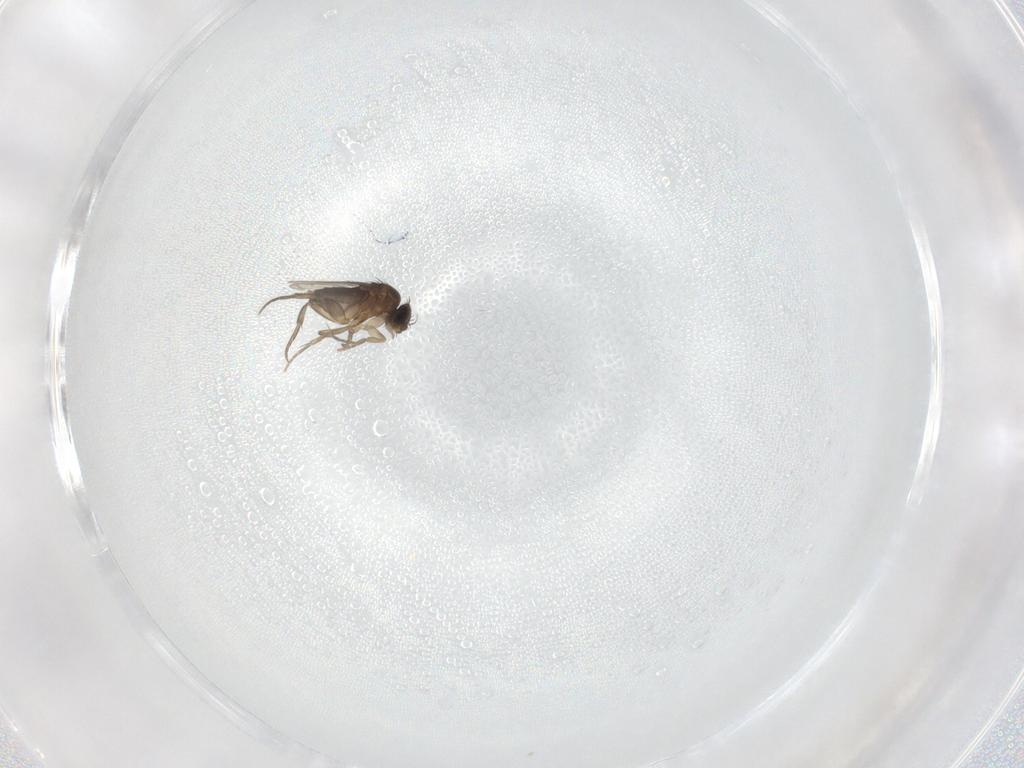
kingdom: Animalia
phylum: Arthropoda
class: Insecta
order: Diptera
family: Phoridae
